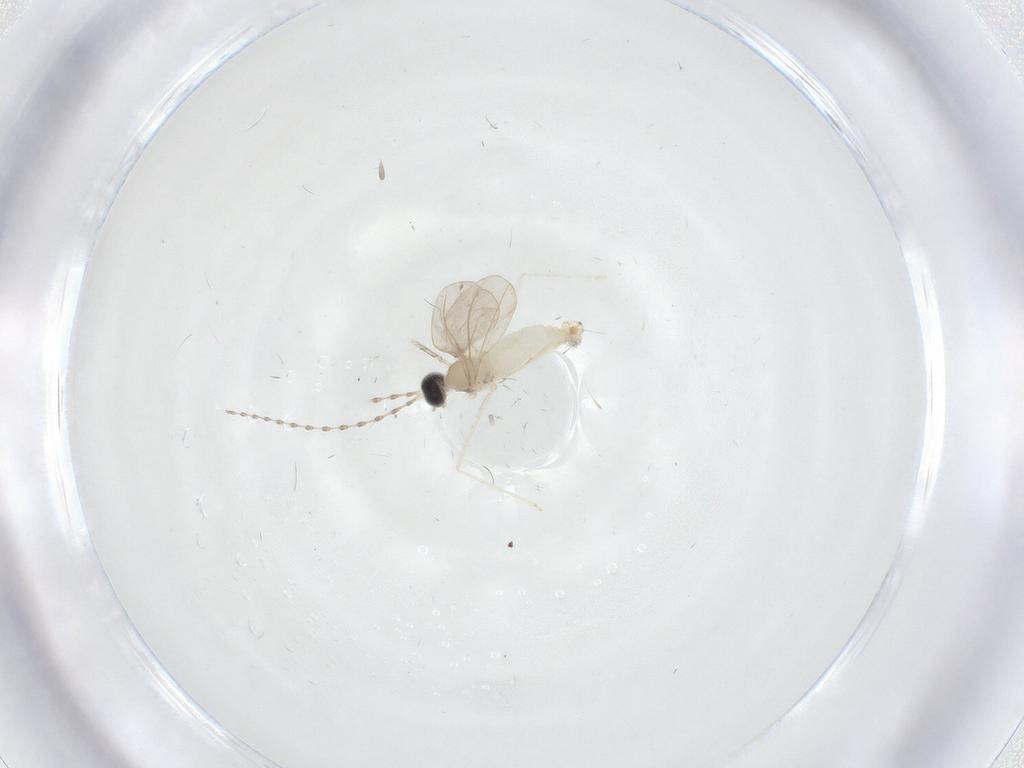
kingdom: Animalia
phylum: Arthropoda
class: Insecta
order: Diptera
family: Cecidomyiidae
